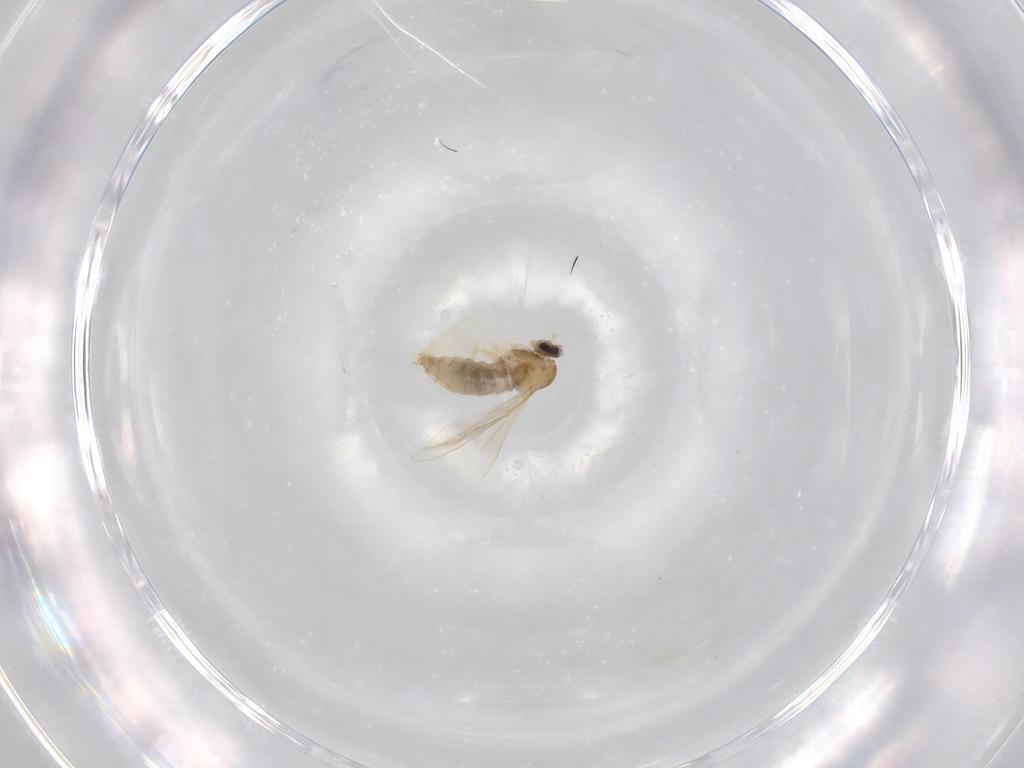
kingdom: Animalia
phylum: Arthropoda
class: Insecta
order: Diptera
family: Cecidomyiidae
